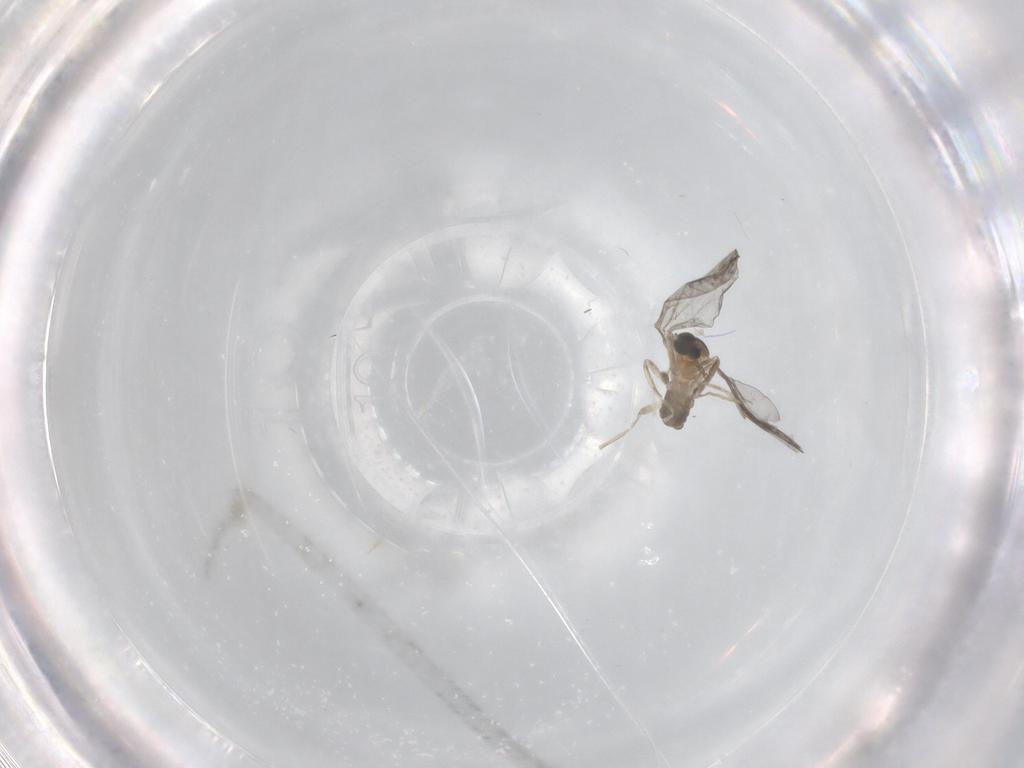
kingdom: Animalia
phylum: Arthropoda
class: Insecta
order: Diptera
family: Cecidomyiidae
